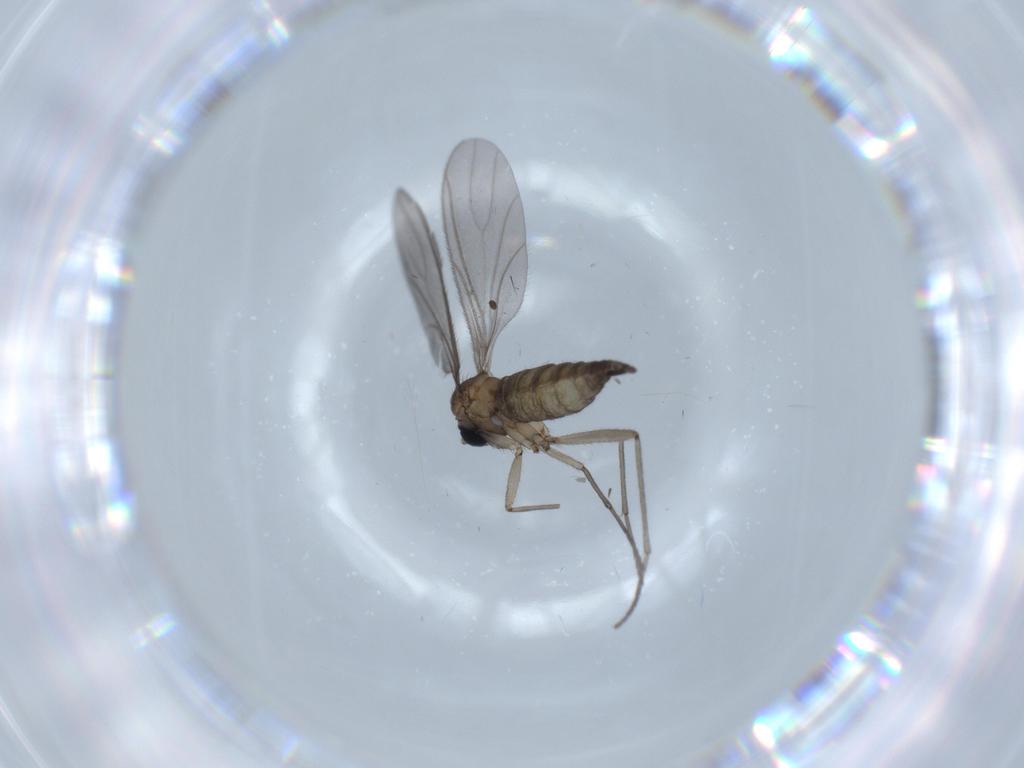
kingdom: Animalia
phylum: Arthropoda
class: Insecta
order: Diptera
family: Sciaridae
